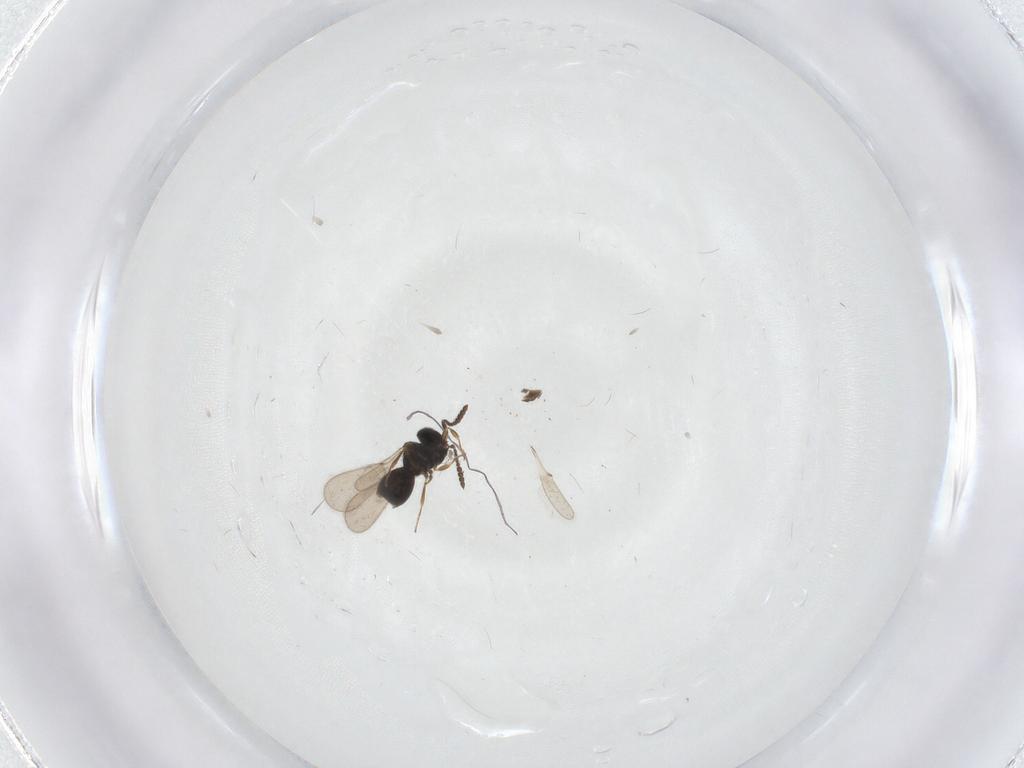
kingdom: Animalia
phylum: Arthropoda
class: Insecta
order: Hymenoptera
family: Scelionidae
